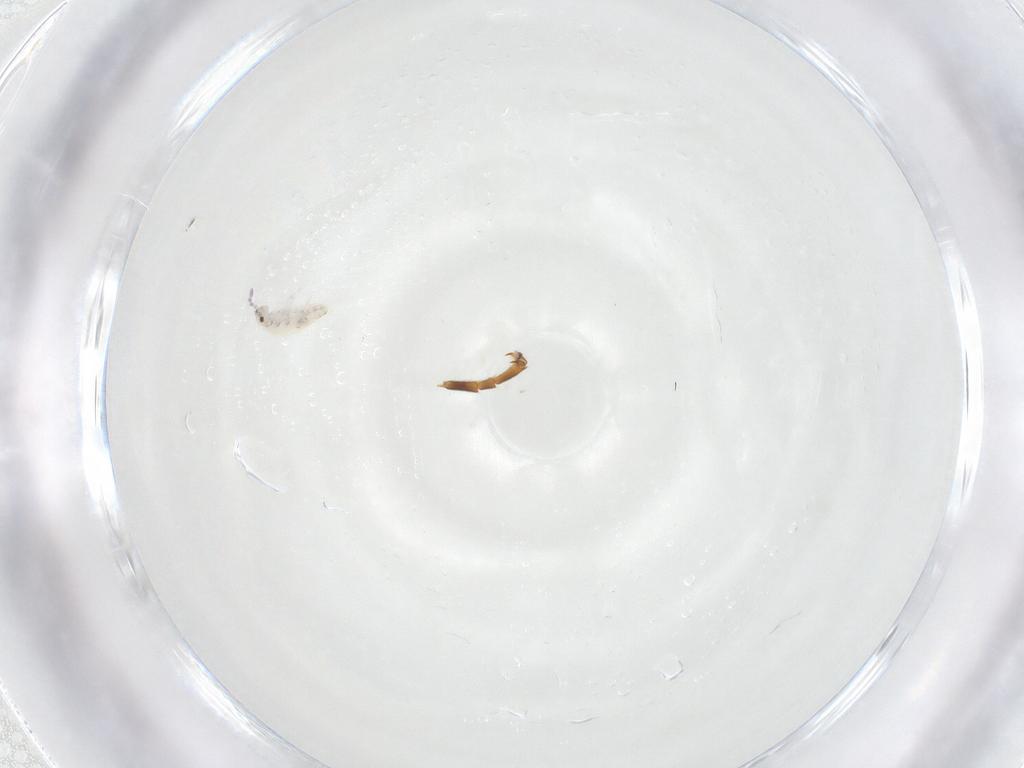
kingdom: Animalia
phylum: Arthropoda
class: Insecta
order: Hymenoptera
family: Ichneumonidae
